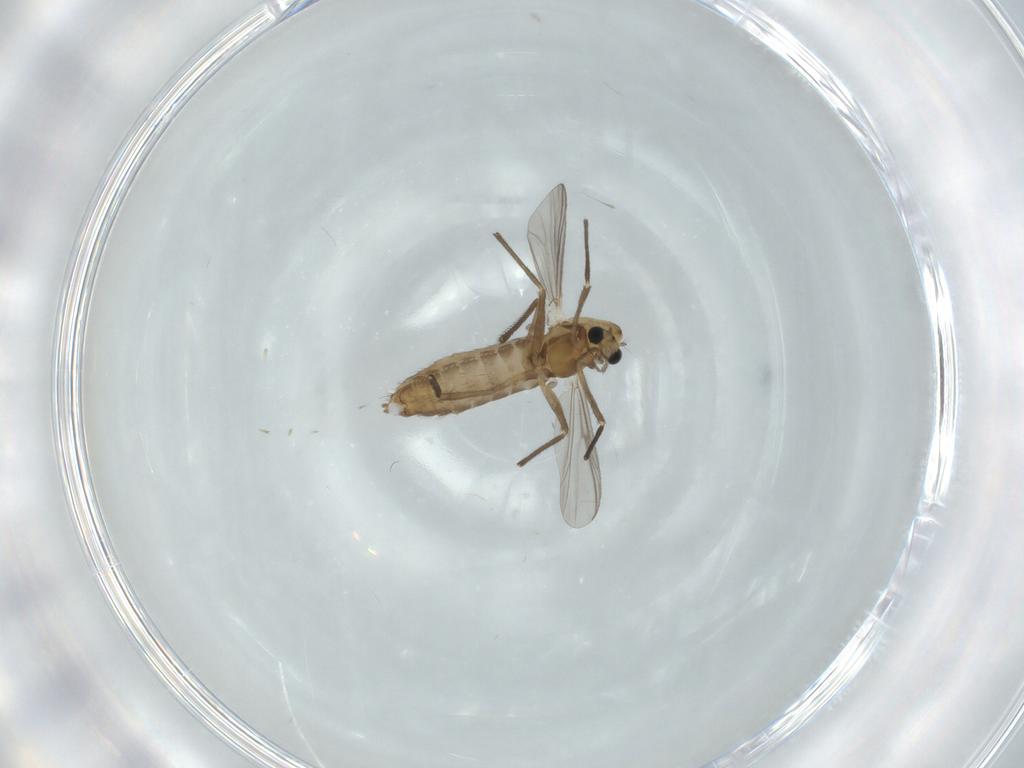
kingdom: Animalia
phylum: Arthropoda
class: Insecta
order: Diptera
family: Chironomidae
